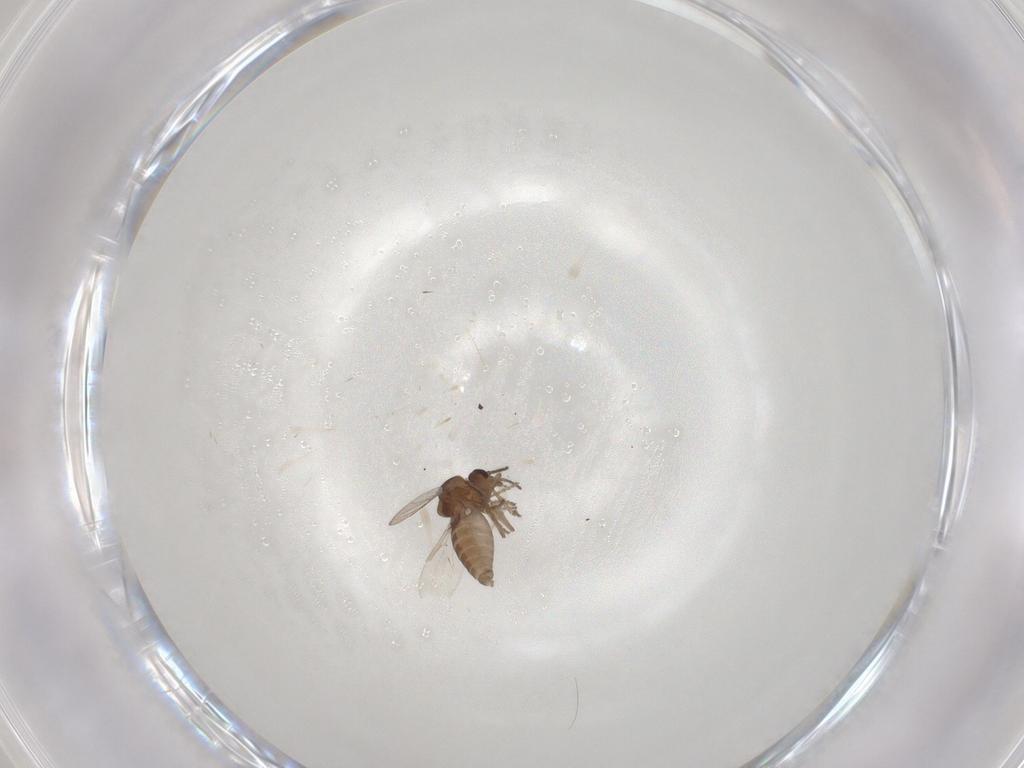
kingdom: Animalia
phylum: Arthropoda
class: Insecta
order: Diptera
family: Ceratopogonidae
